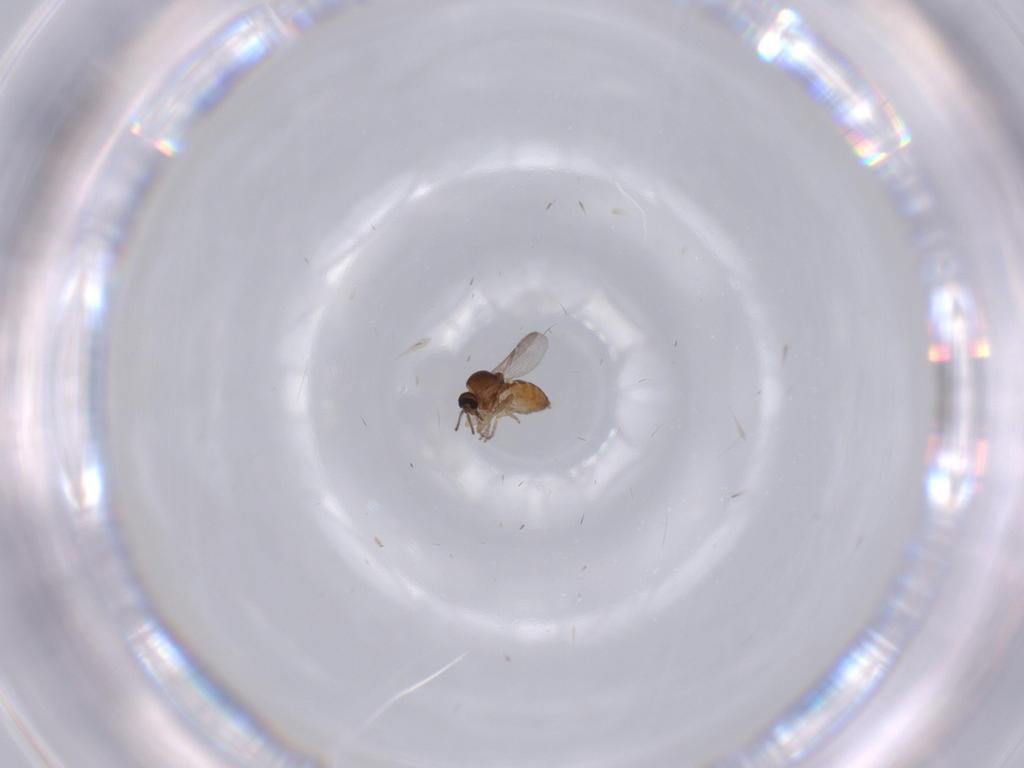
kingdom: Animalia
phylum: Arthropoda
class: Insecta
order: Diptera
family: Ceratopogonidae
